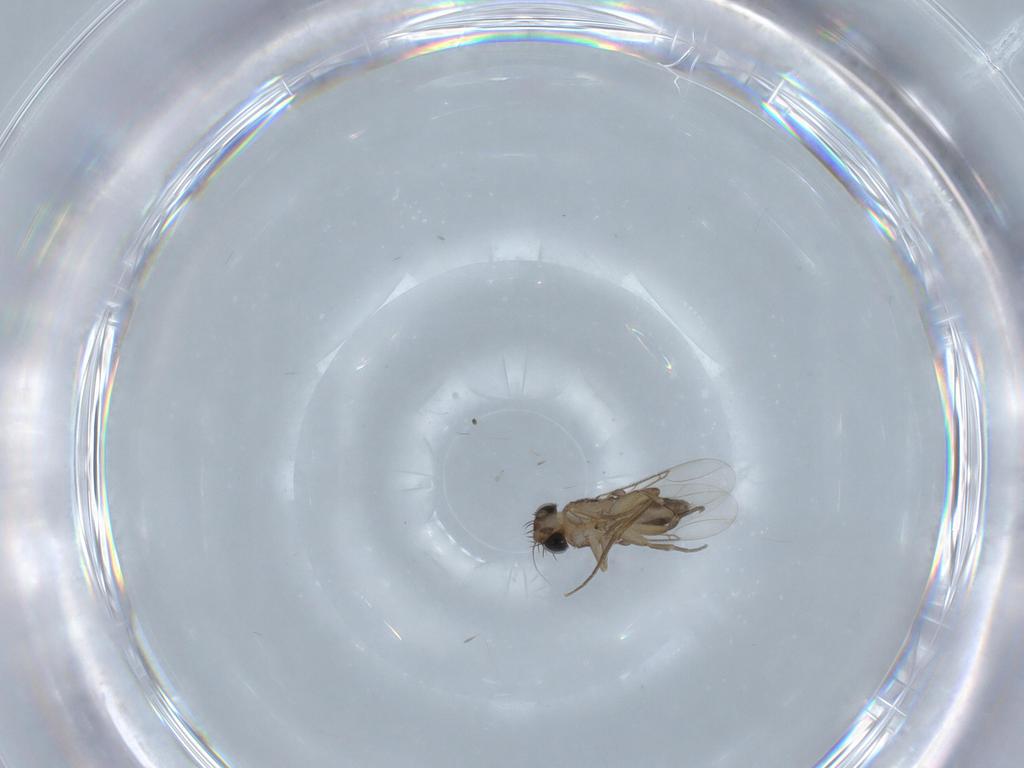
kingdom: Animalia
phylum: Arthropoda
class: Insecta
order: Diptera
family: Phoridae
